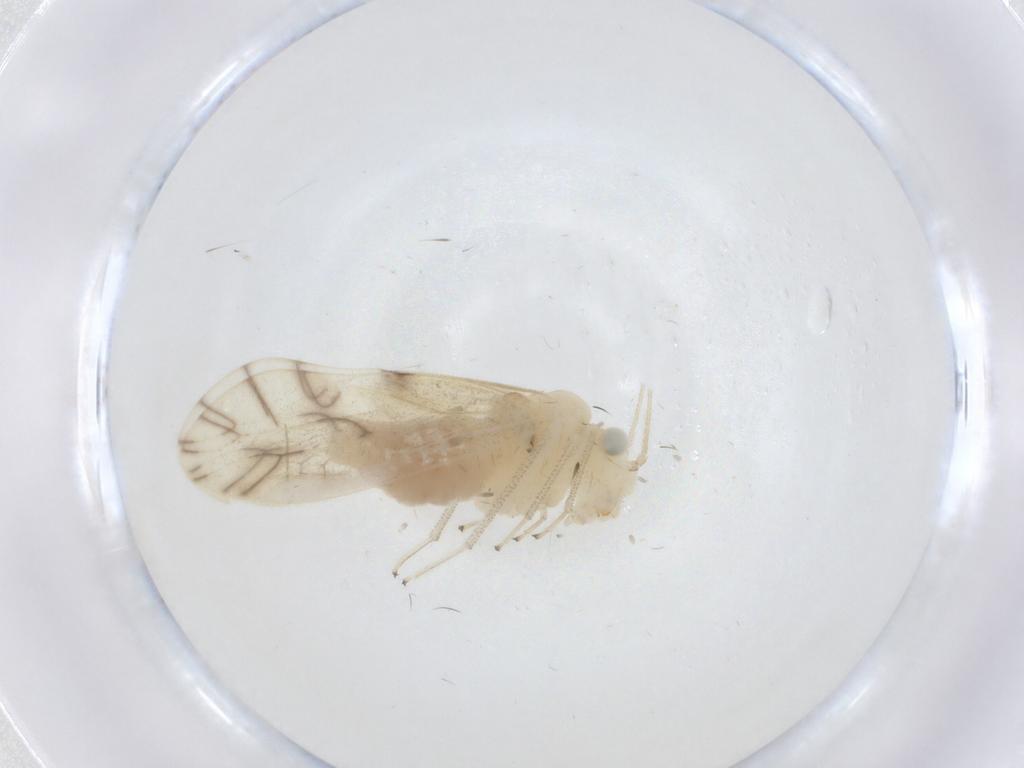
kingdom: Animalia
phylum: Arthropoda
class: Insecta
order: Psocodea
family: Caeciliusidae
